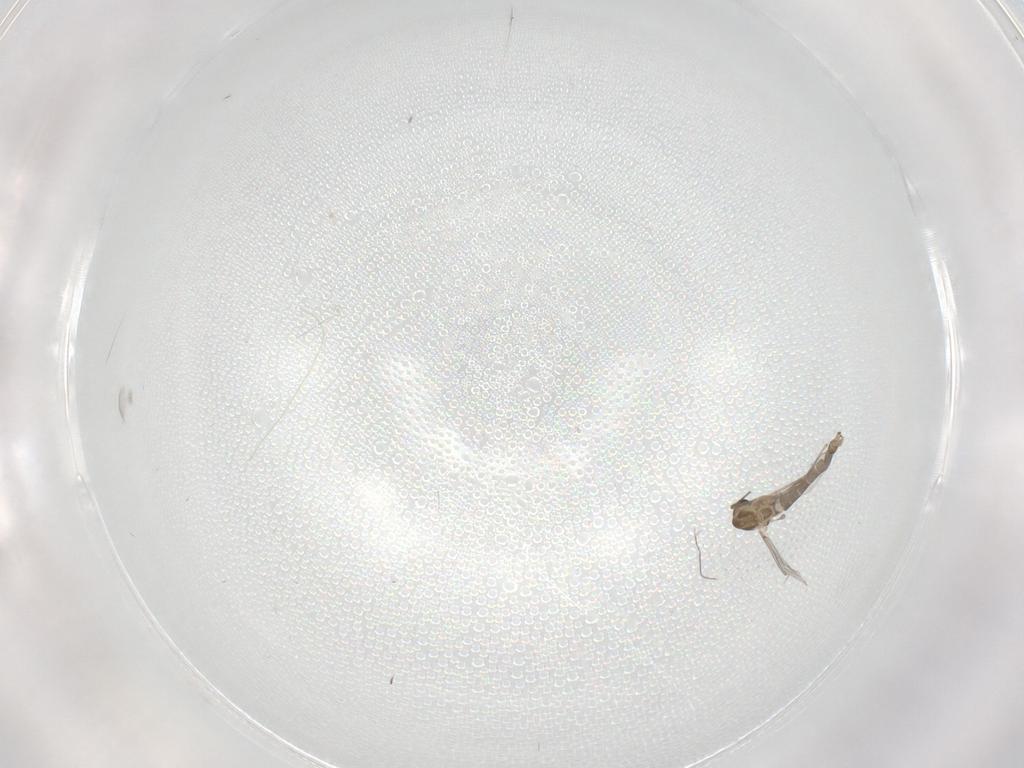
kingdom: Animalia
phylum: Arthropoda
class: Insecta
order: Diptera
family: Chironomidae
